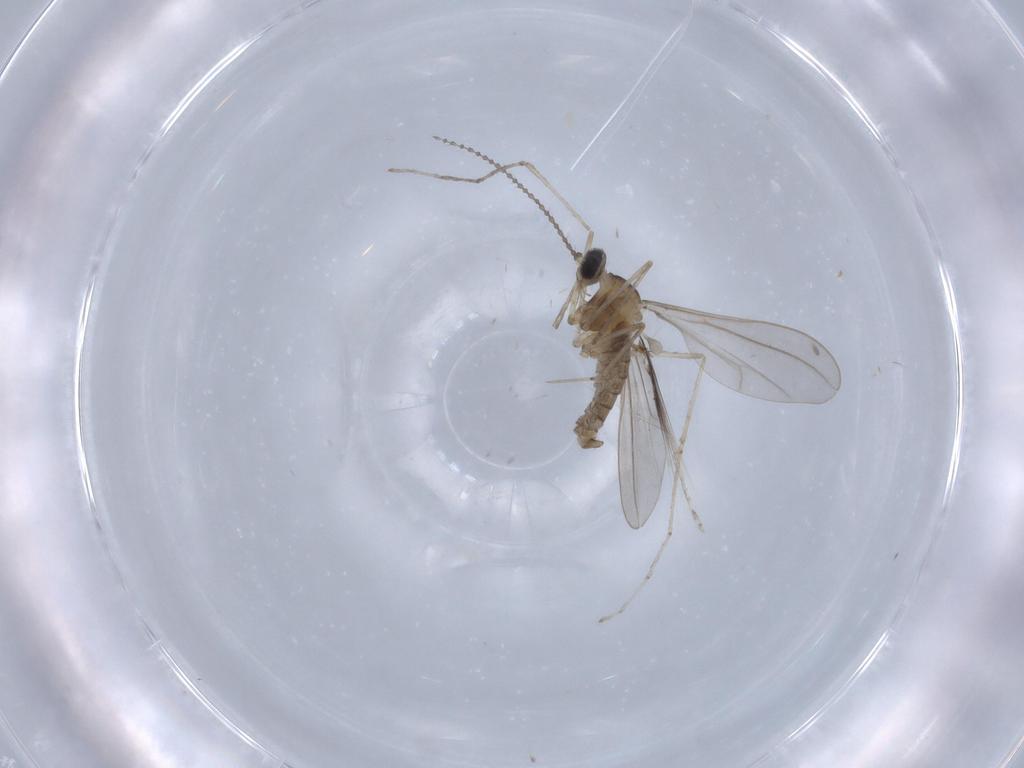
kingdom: Animalia
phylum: Arthropoda
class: Insecta
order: Diptera
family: Cecidomyiidae
